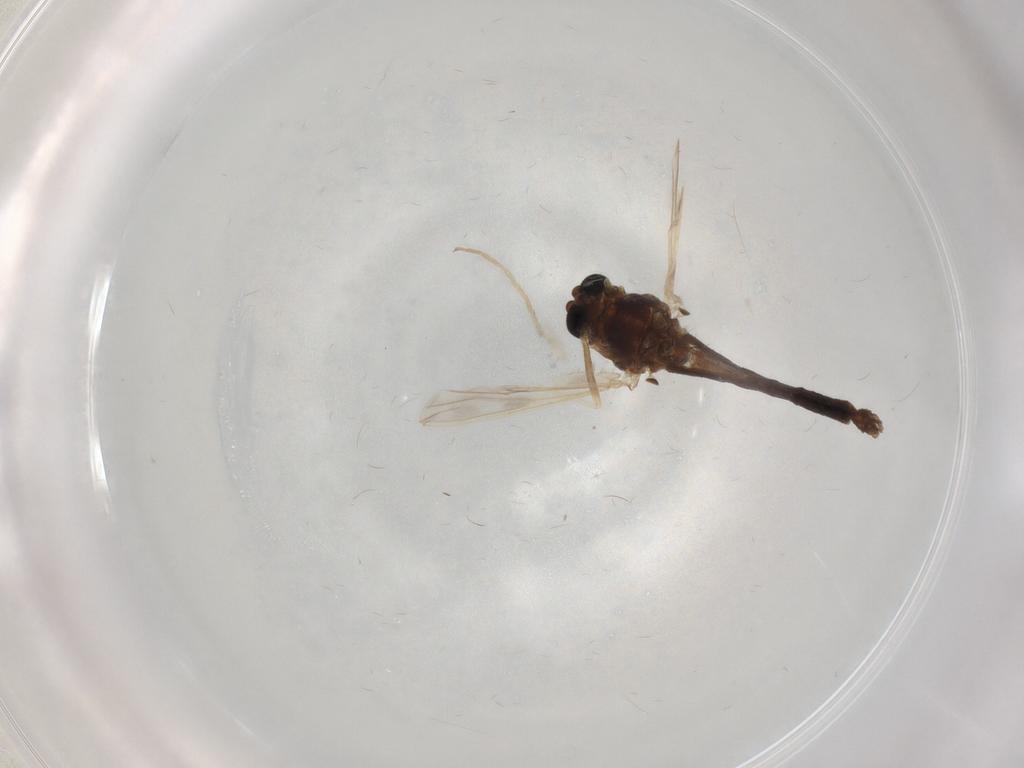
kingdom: Animalia
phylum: Arthropoda
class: Insecta
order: Diptera
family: Chironomidae
